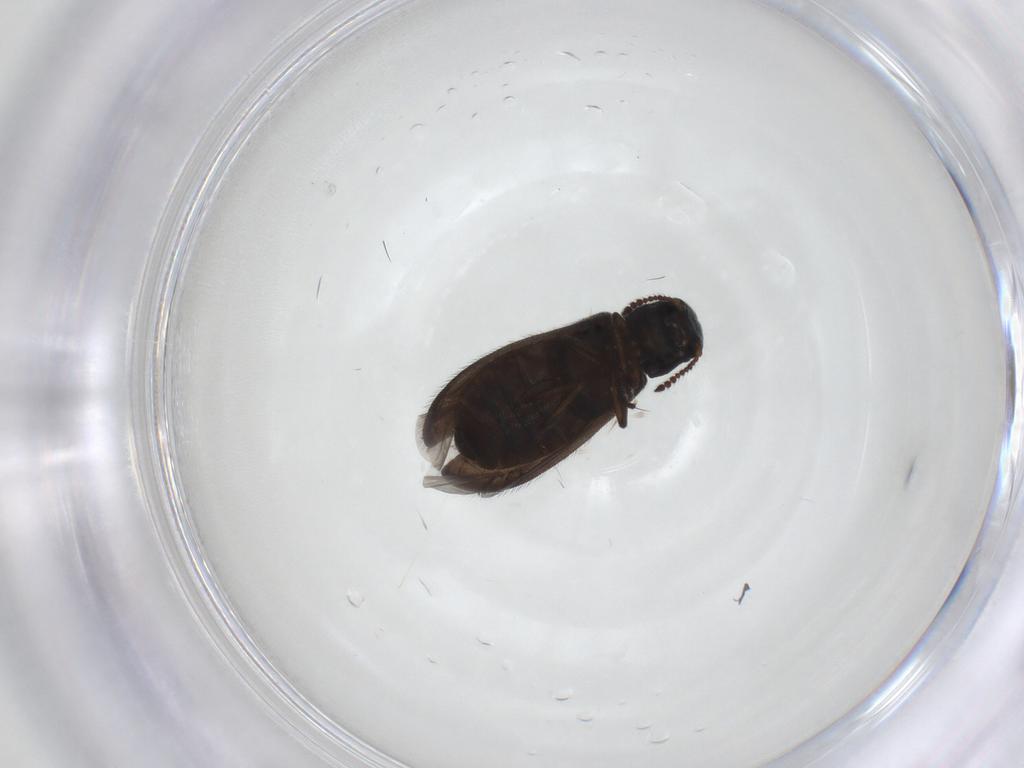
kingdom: Animalia
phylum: Arthropoda
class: Insecta
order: Coleoptera
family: Melyridae
